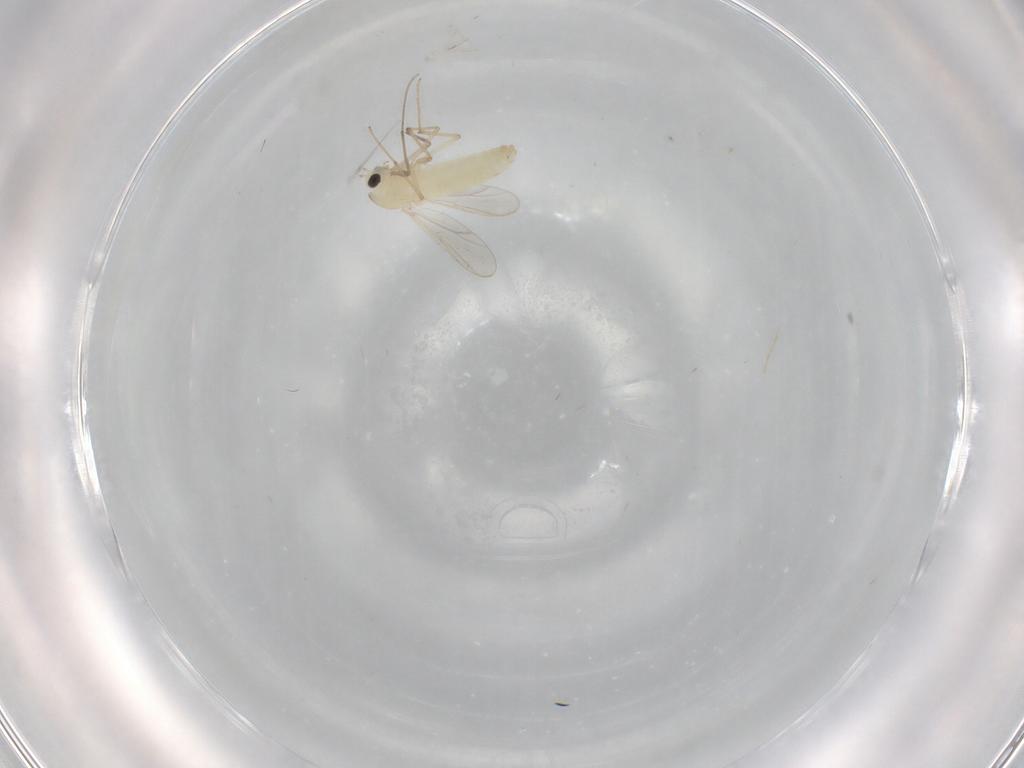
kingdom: Animalia
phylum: Arthropoda
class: Insecta
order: Diptera
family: Chironomidae
